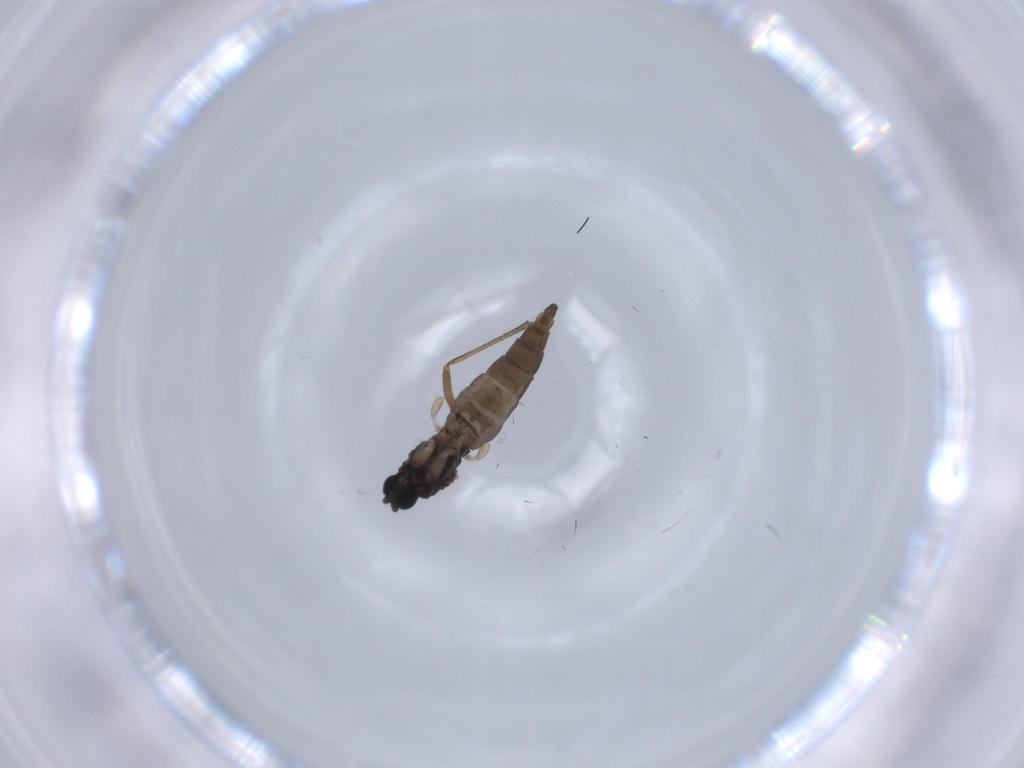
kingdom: Animalia
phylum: Arthropoda
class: Insecta
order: Diptera
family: Sciaridae
